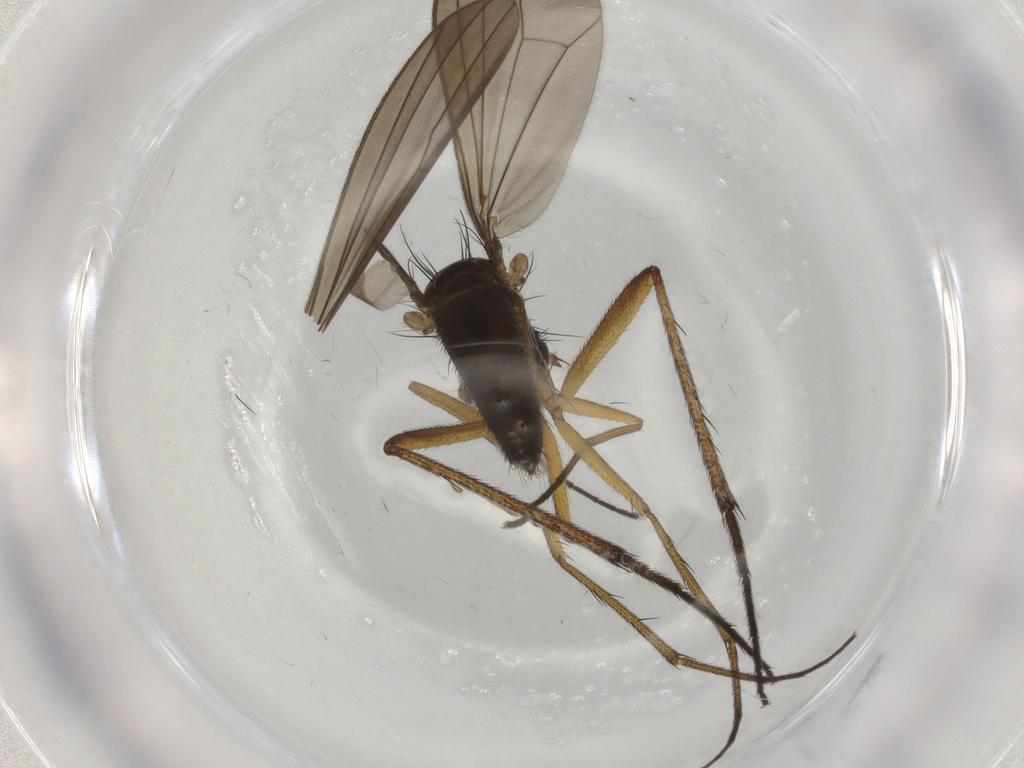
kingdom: Animalia
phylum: Arthropoda
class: Insecta
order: Diptera
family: Dolichopodidae
